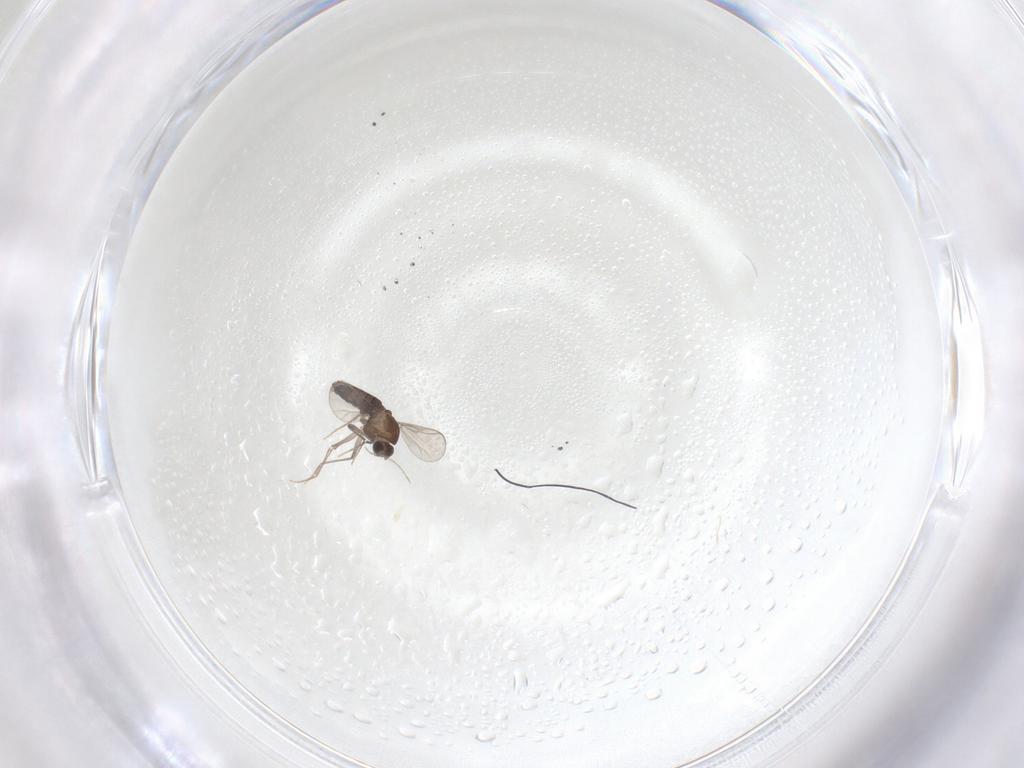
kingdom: Animalia
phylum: Arthropoda
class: Insecta
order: Diptera
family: Chironomidae
